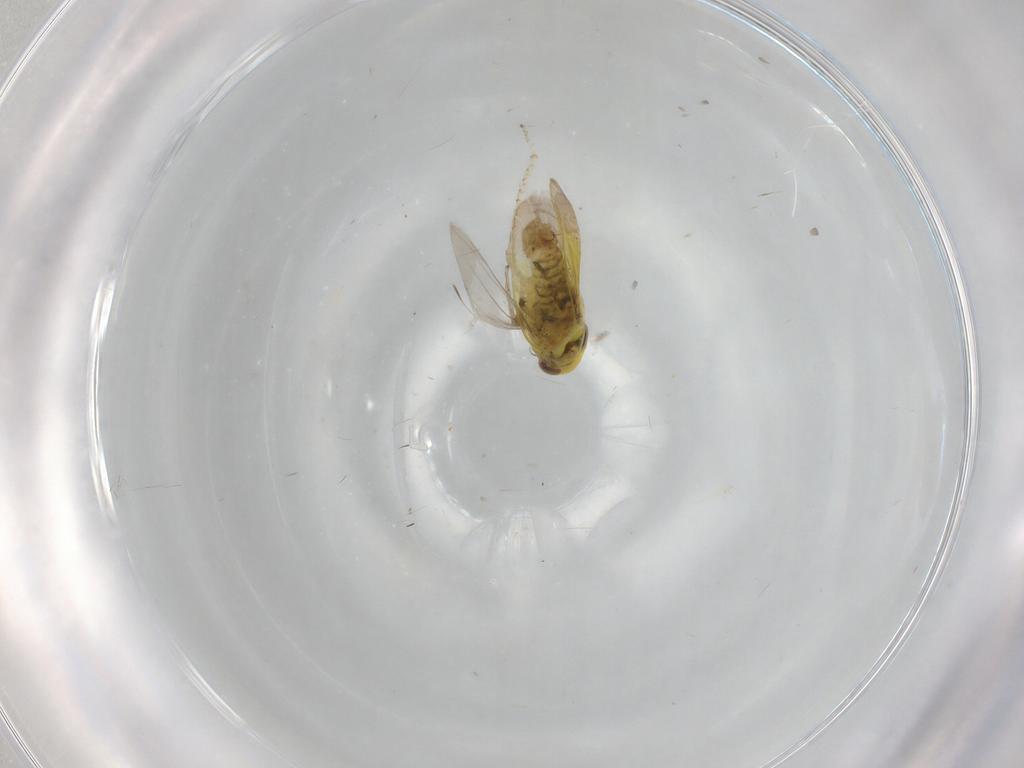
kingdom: Animalia
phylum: Arthropoda
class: Insecta
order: Hemiptera
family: Cicadellidae
